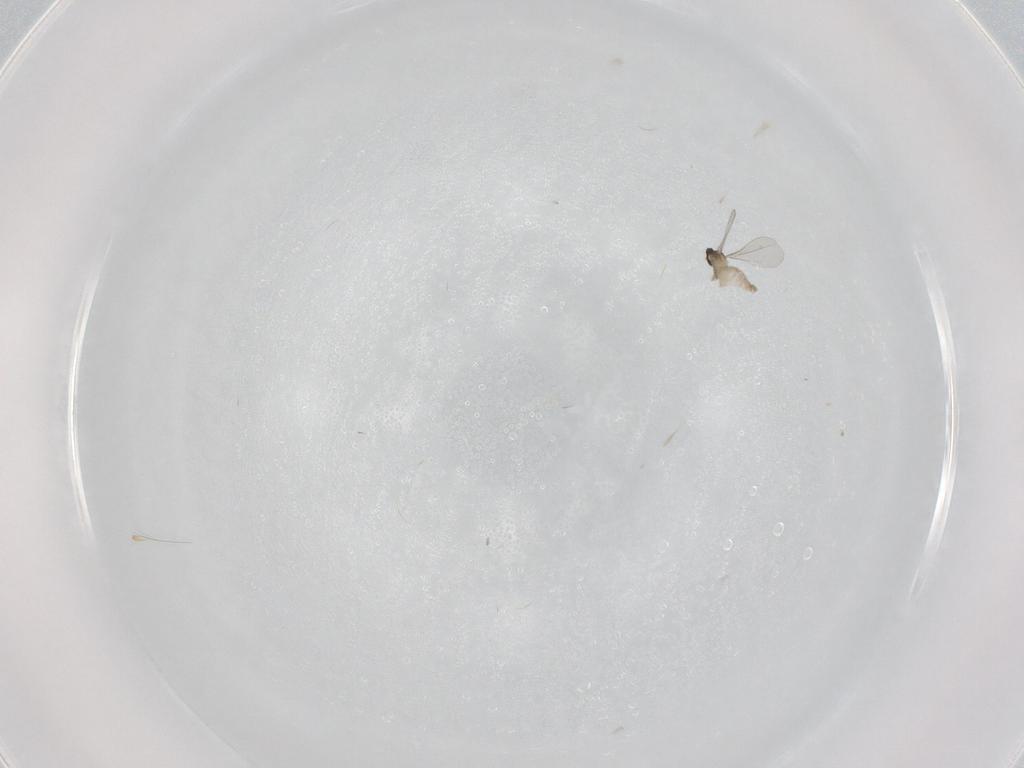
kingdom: Animalia
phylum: Arthropoda
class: Insecta
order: Diptera
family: Cecidomyiidae
